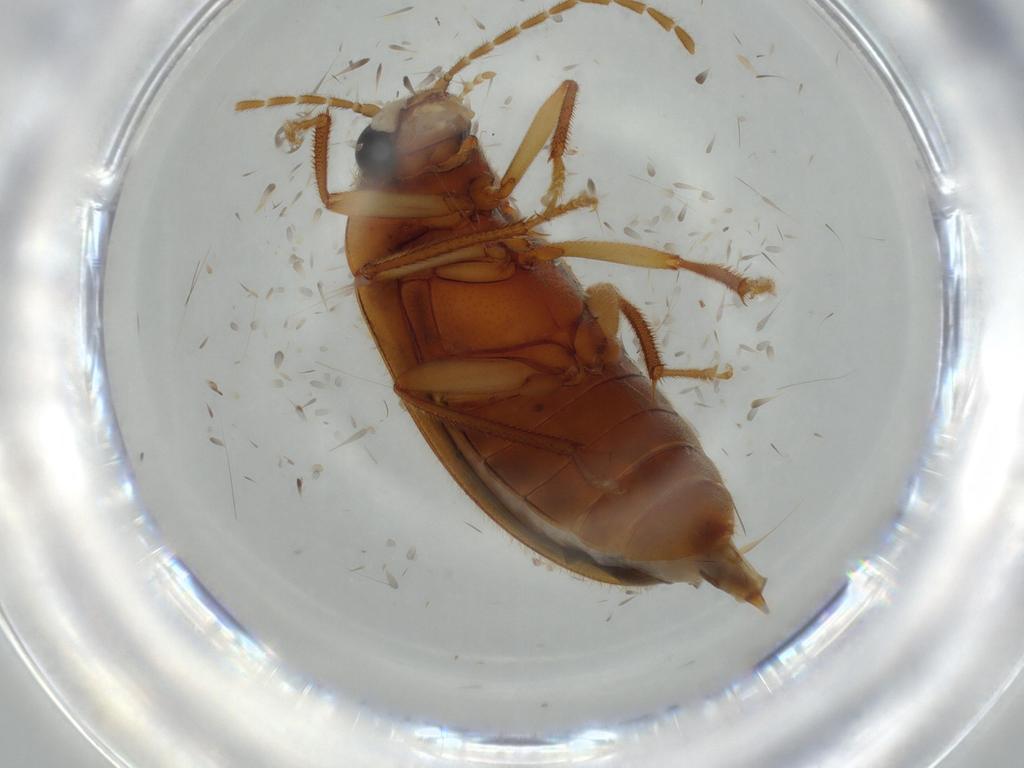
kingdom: Animalia
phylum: Arthropoda
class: Insecta
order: Coleoptera
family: Ptilodactylidae
